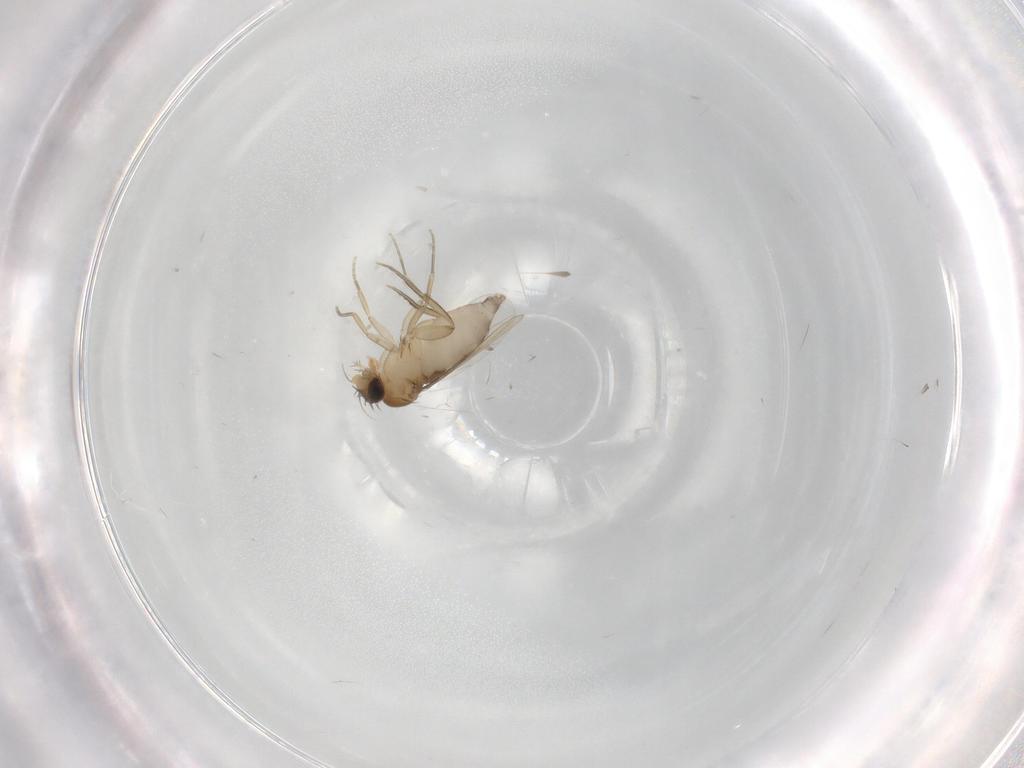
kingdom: Animalia
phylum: Arthropoda
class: Insecta
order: Diptera
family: Phoridae
